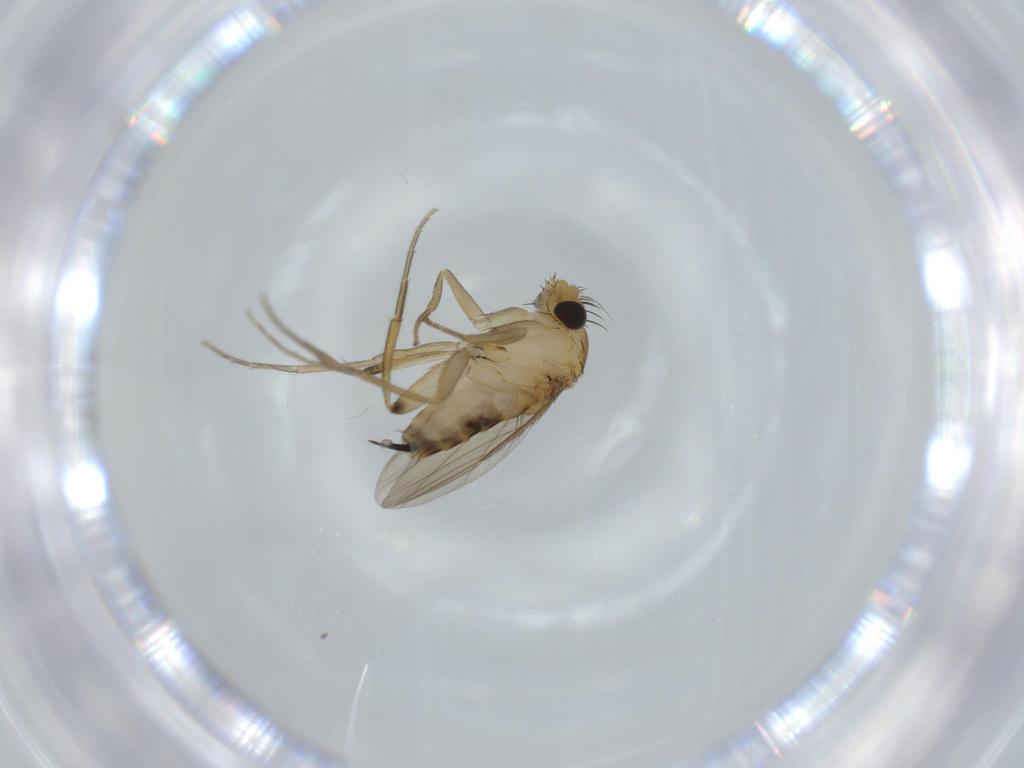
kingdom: Animalia
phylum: Arthropoda
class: Insecta
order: Diptera
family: Phoridae
